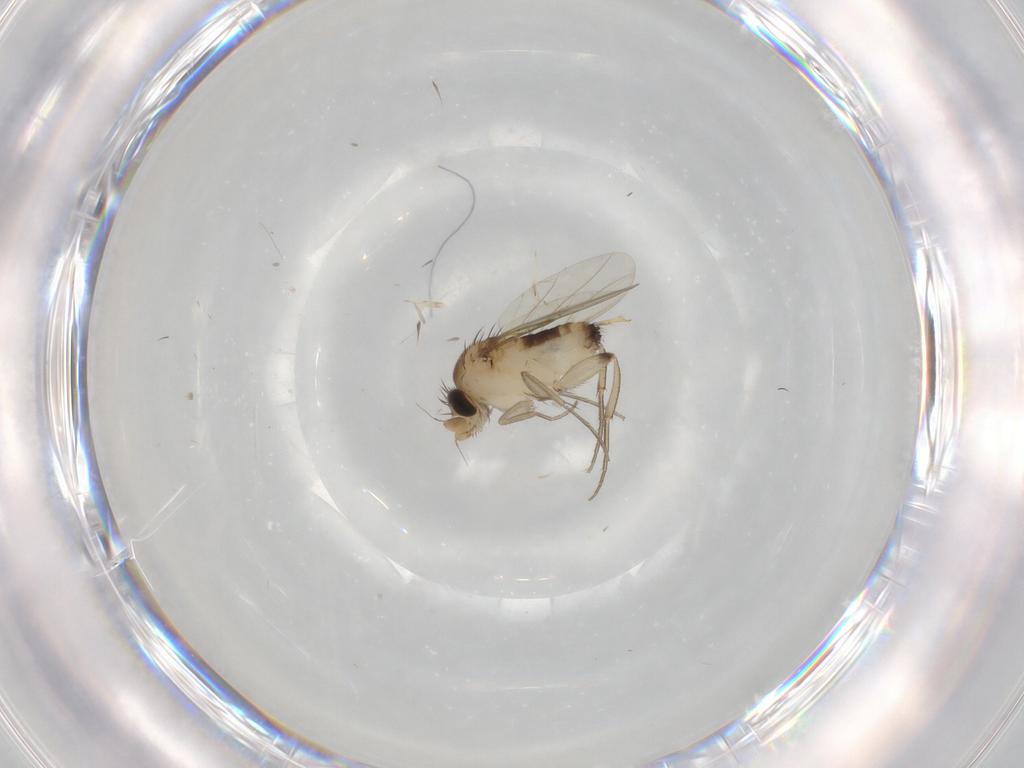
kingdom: Animalia
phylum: Arthropoda
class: Insecta
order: Diptera
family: Phoridae
